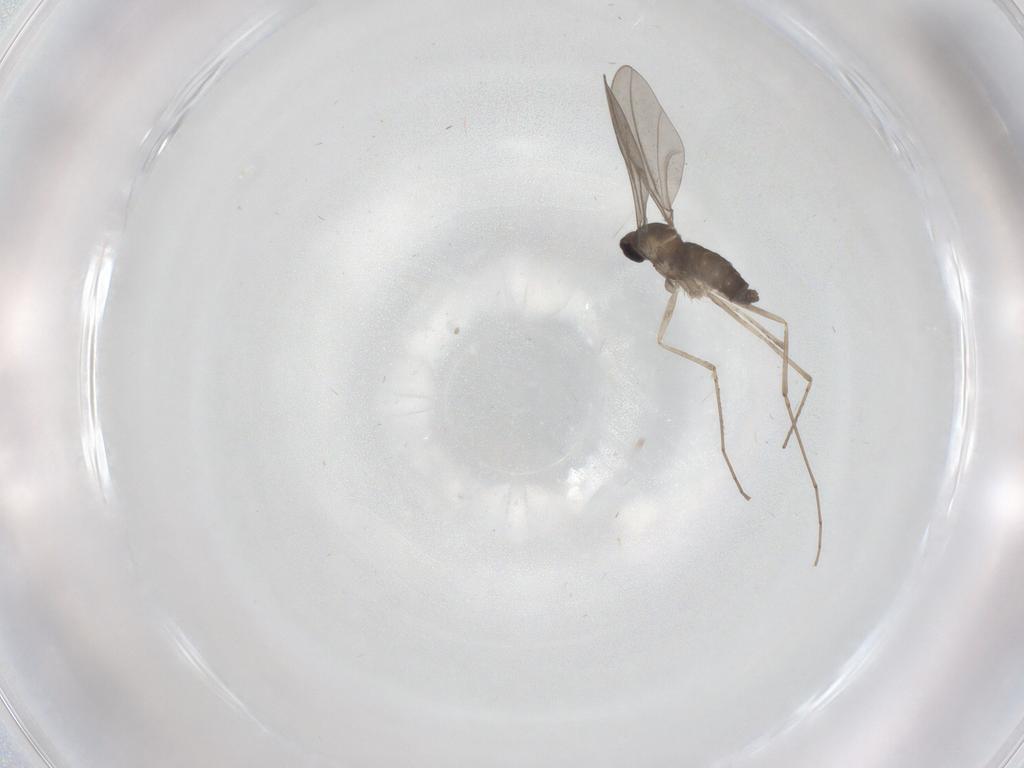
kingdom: Animalia
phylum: Arthropoda
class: Insecta
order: Diptera
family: Cecidomyiidae
